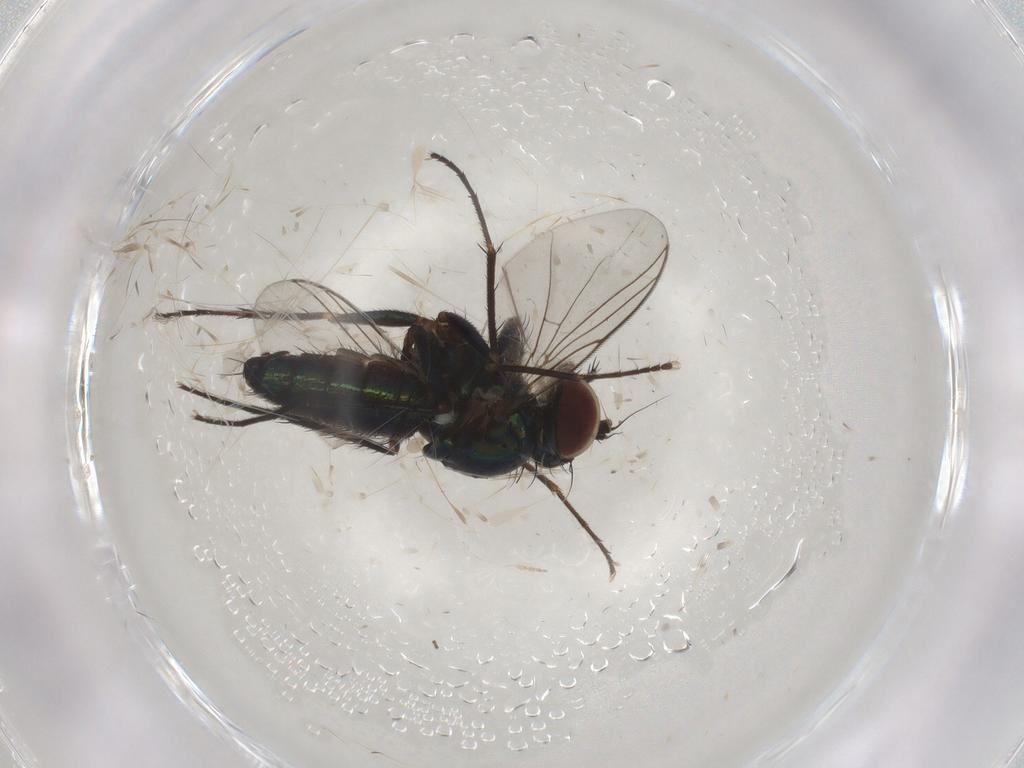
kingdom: Animalia
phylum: Arthropoda
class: Insecta
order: Diptera
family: Dolichopodidae
